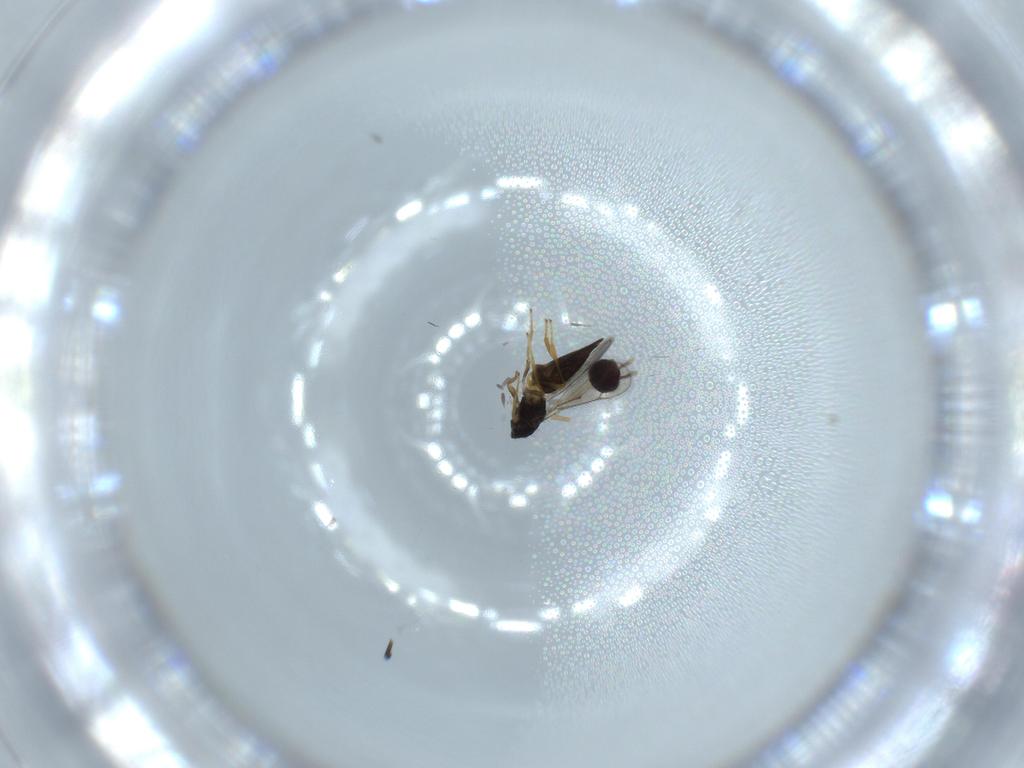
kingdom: Animalia
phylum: Arthropoda
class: Insecta
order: Hymenoptera
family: Eulophidae
